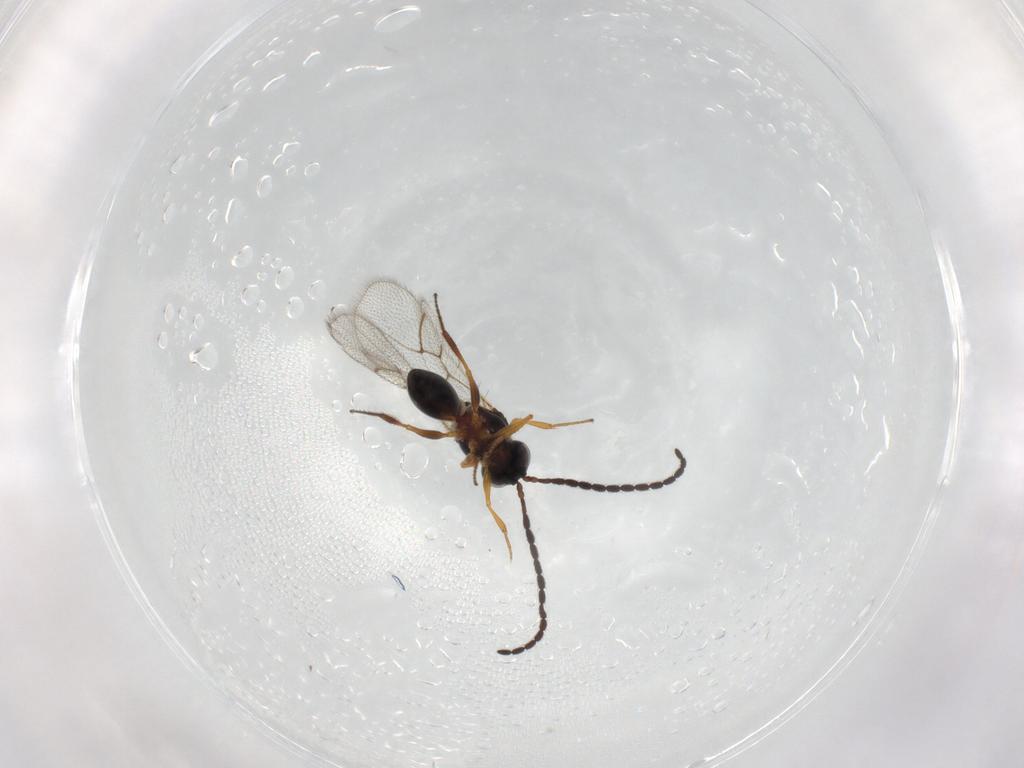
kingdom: Animalia
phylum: Arthropoda
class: Insecta
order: Hymenoptera
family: Figitidae
